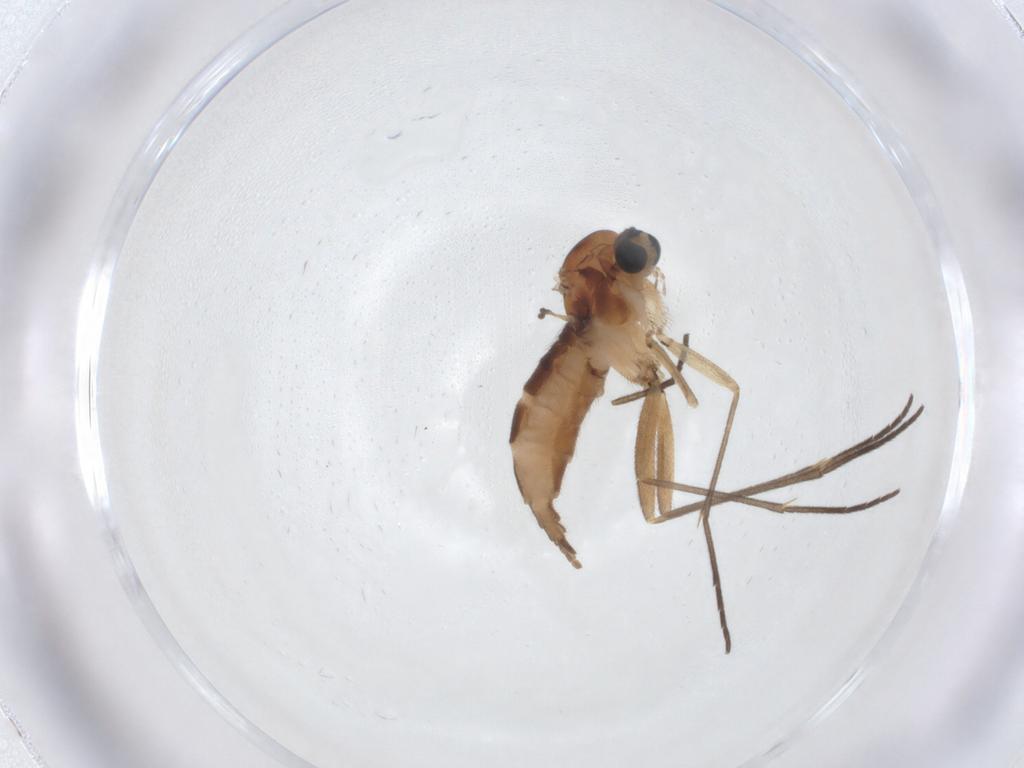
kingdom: Animalia
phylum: Arthropoda
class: Insecta
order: Diptera
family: Sciaridae
